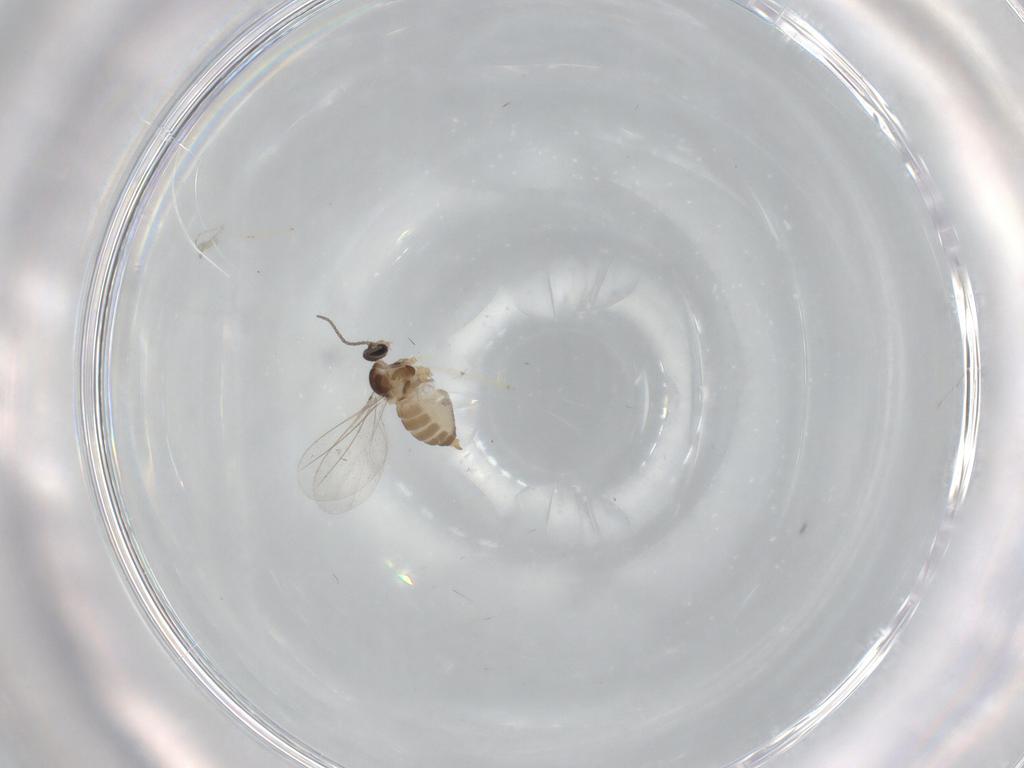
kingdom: Animalia
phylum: Arthropoda
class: Insecta
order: Diptera
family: Cecidomyiidae
